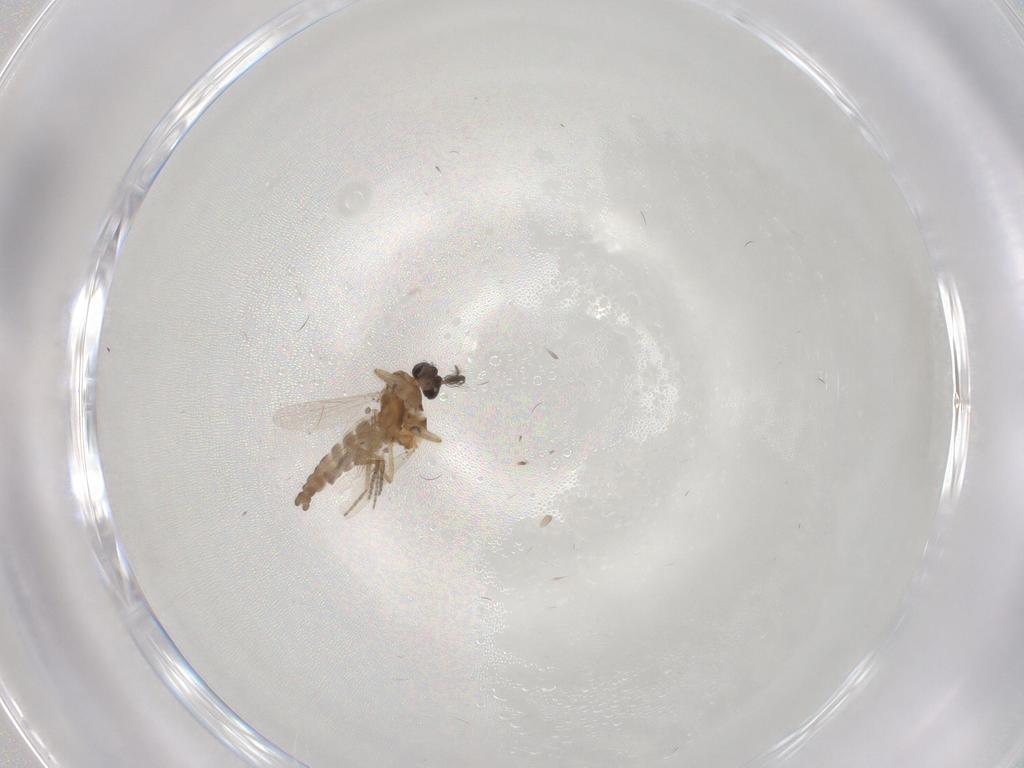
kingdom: Animalia
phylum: Arthropoda
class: Insecta
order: Diptera
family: Ceratopogonidae
